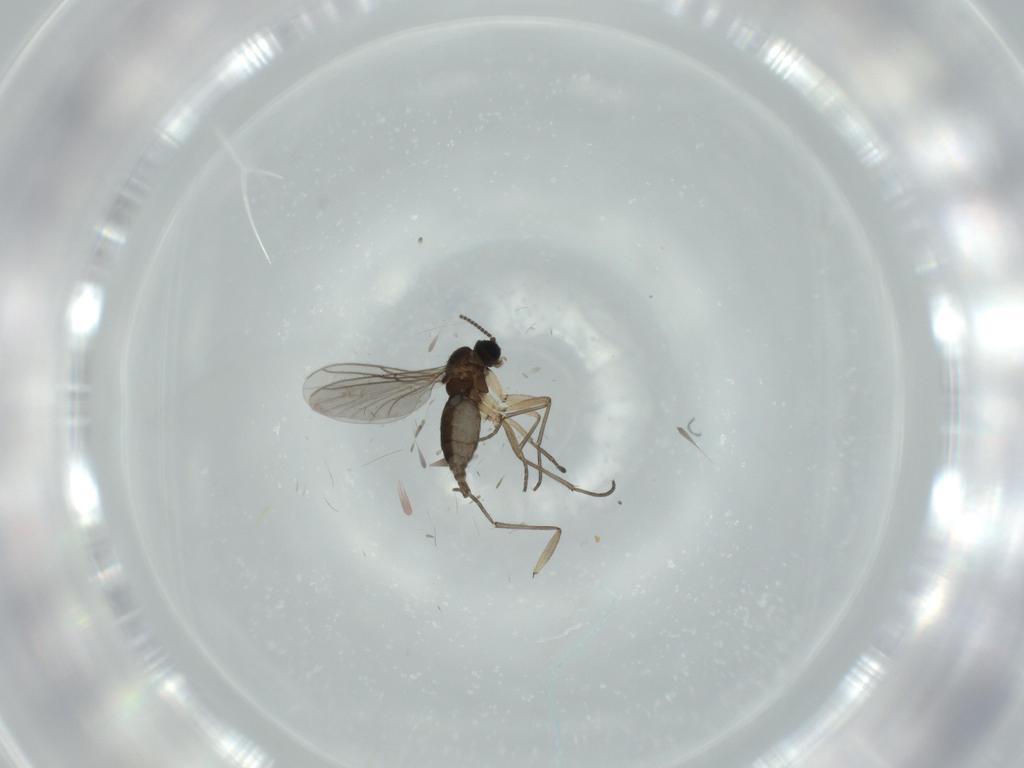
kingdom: Animalia
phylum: Arthropoda
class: Insecta
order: Diptera
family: Sciaridae
